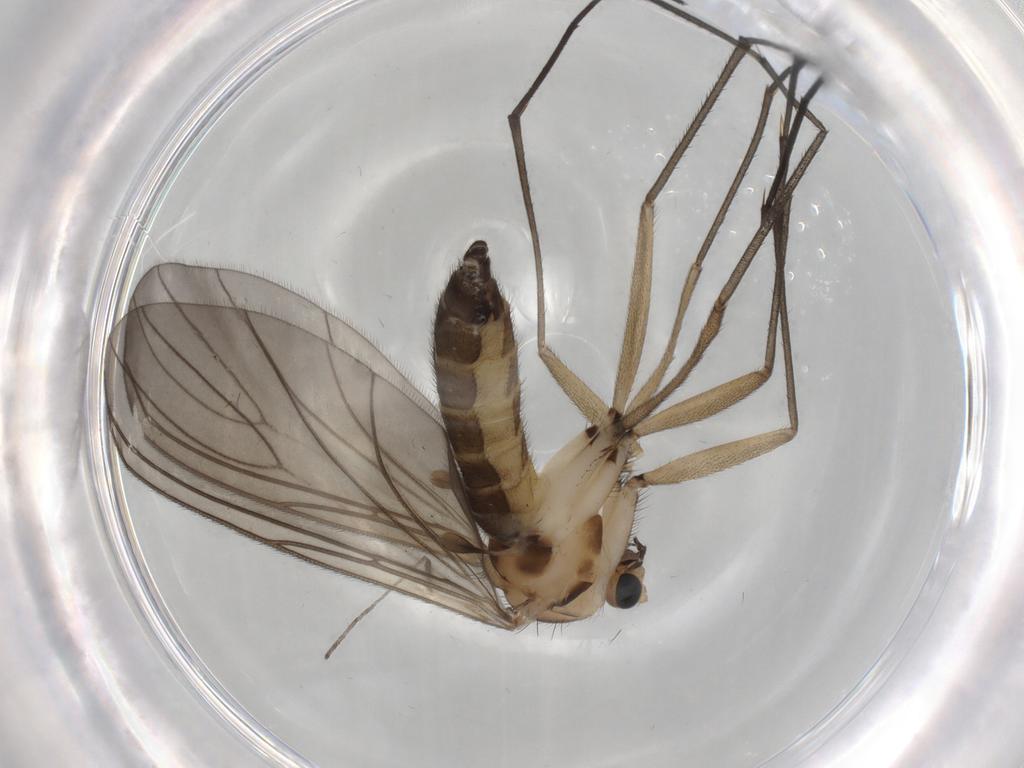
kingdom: Animalia
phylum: Arthropoda
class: Insecta
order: Diptera
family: Sciaridae
